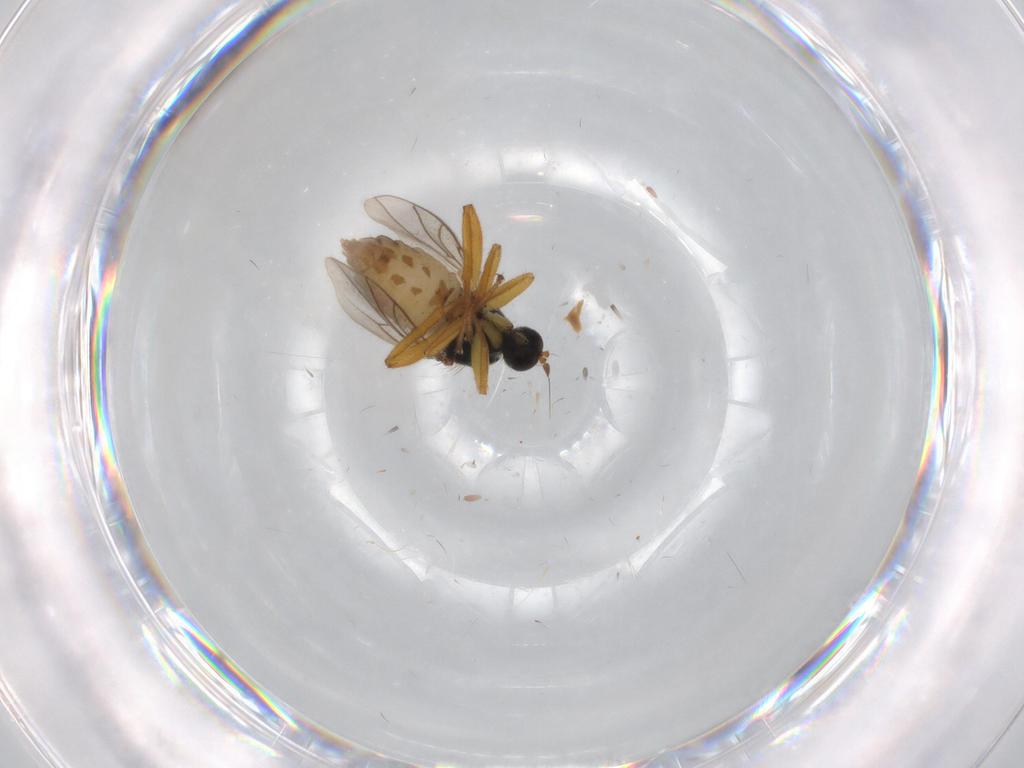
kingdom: Animalia
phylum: Arthropoda
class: Insecta
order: Diptera
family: Hybotidae
